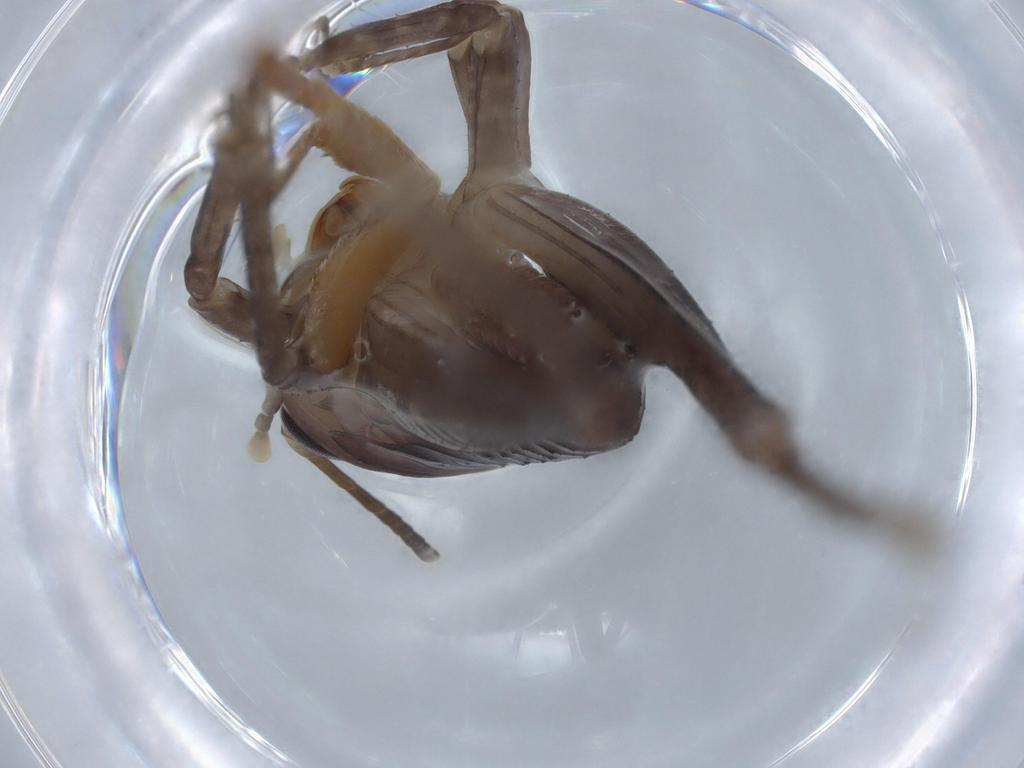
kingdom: Animalia
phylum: Arthropoda
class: Insecta
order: Orthoptera
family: Anostostomatidae
